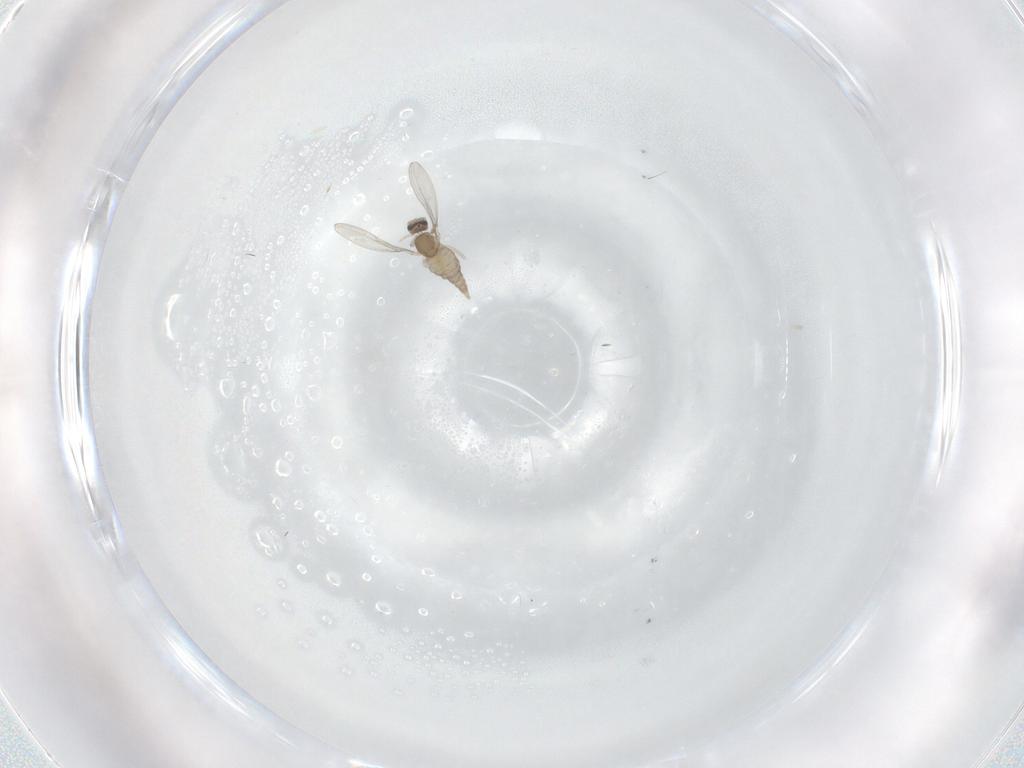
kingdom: Animalia
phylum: Arthropoda
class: Insecta
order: Diptera
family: Cecidomyiidae
